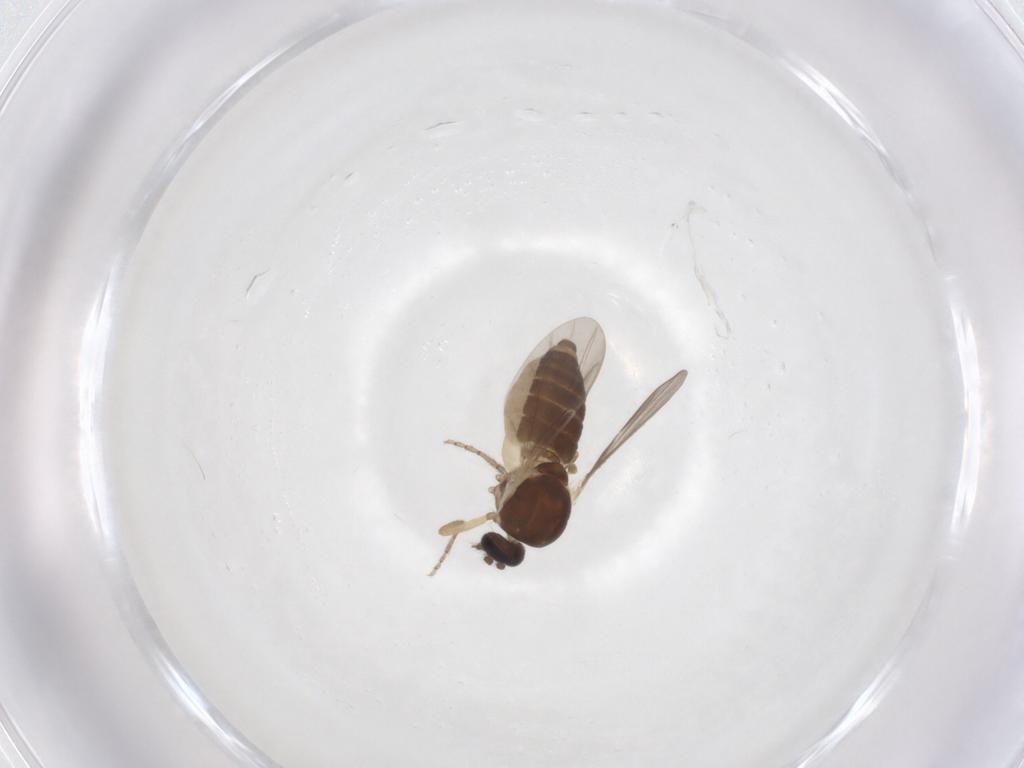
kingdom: Animalia
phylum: Arthropoda
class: Insecta
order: Diptera
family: Ceratopogonidae
